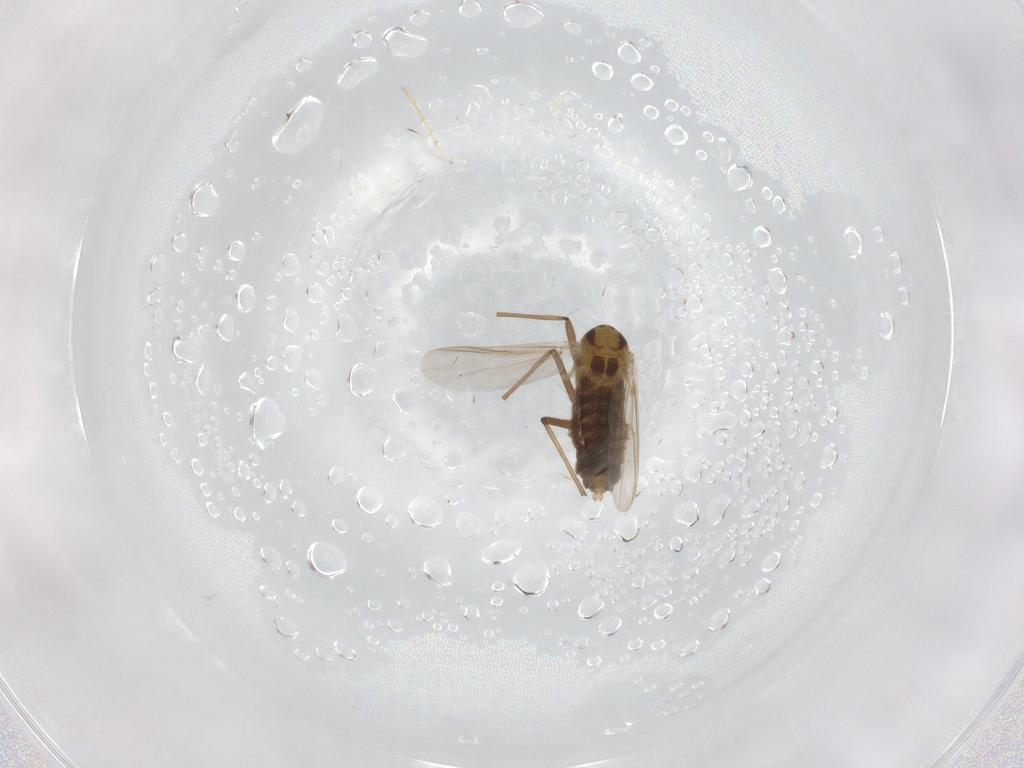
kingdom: Animalia
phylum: Arthropoda
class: Insecta
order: Diptera
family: Chironomidae
